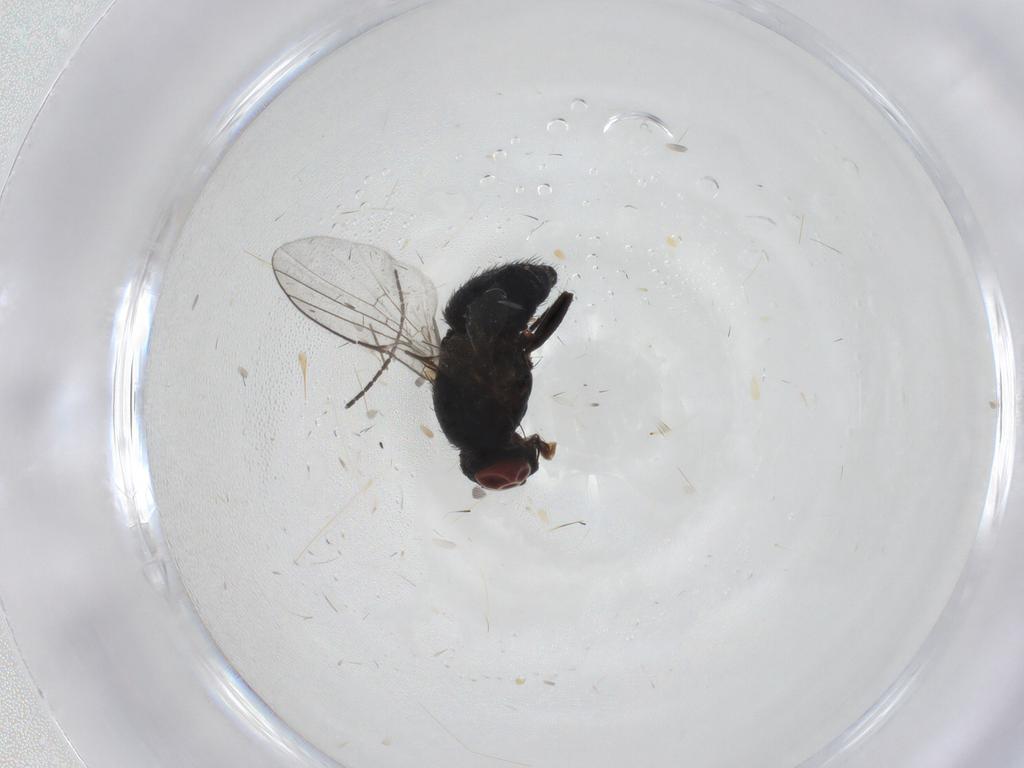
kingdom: Animalia
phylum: Arthropoda
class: Insecta
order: Diptera
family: Agromyzidae
